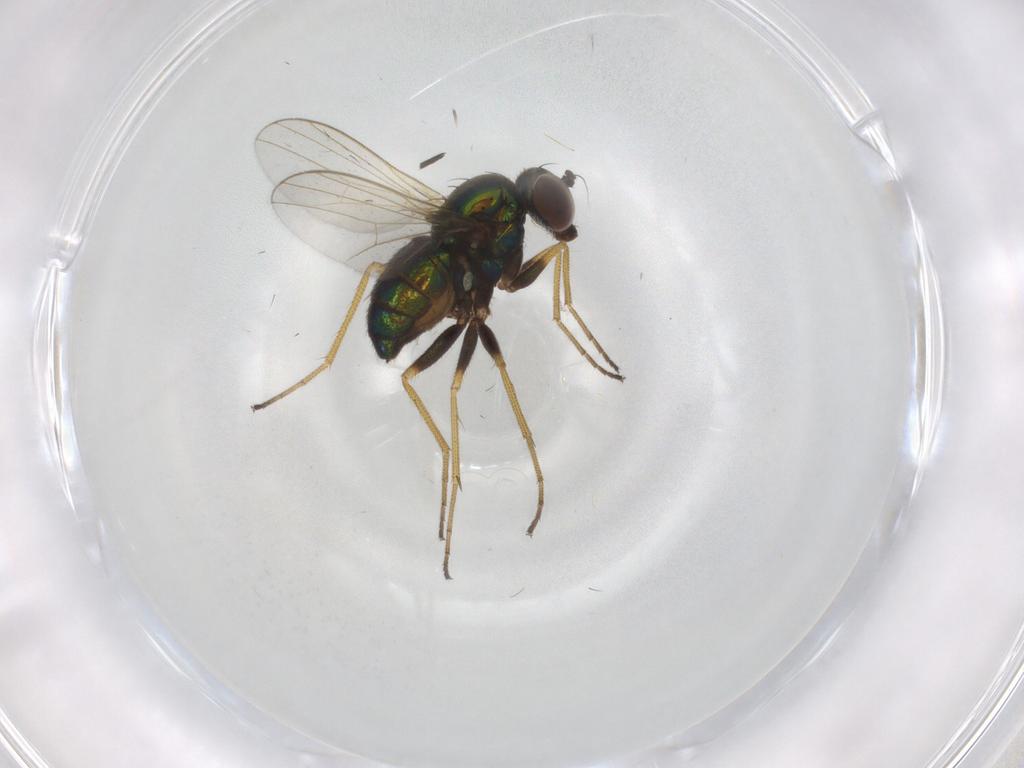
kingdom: Animalia
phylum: Arthropoda
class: Insecta
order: Diptera
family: Dolichopodidae
